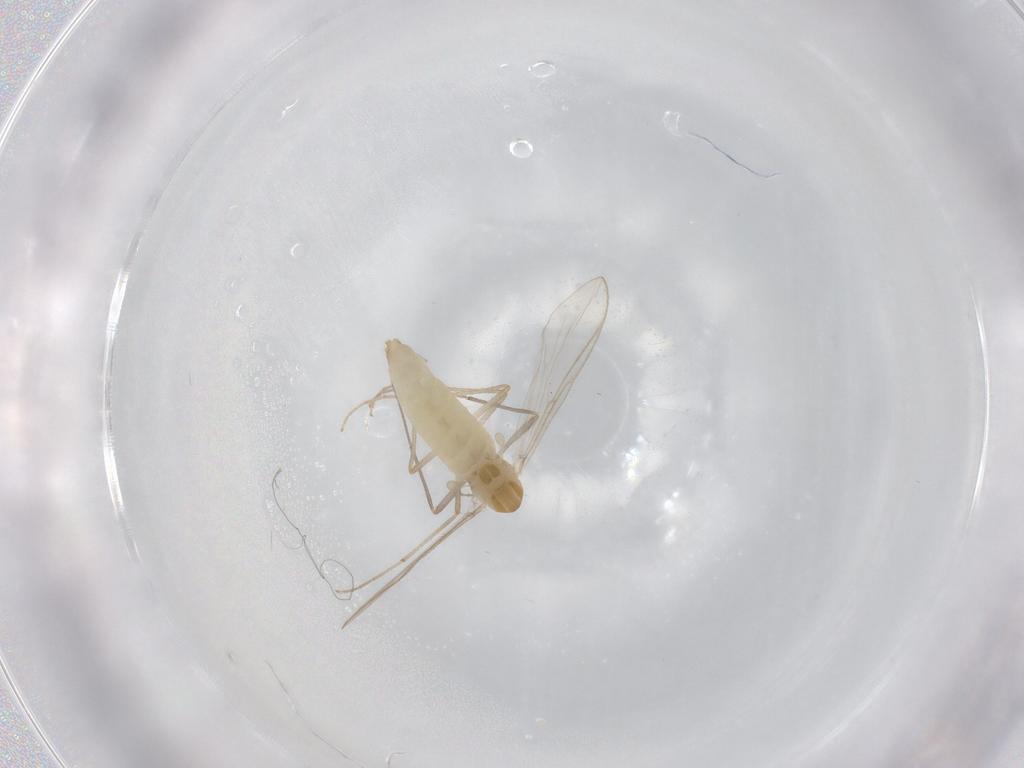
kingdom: Animalia
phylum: Arthropoda
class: Insecta
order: Diptera
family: Chironomidae
